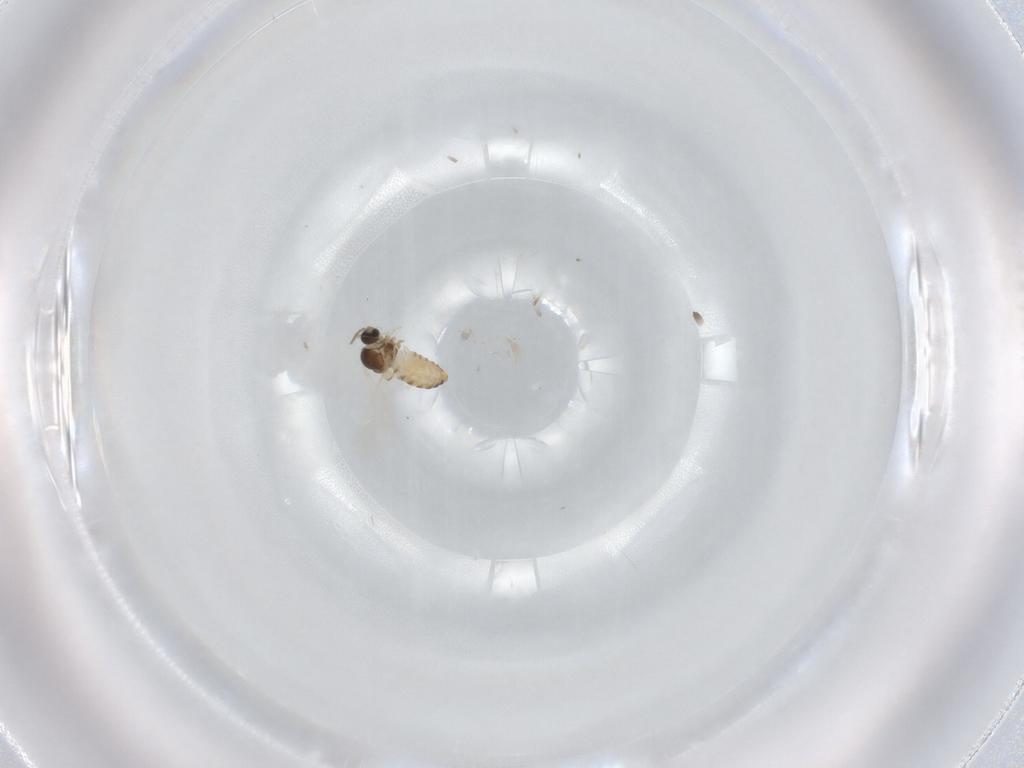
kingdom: Animalia
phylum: Arthropoda
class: Insecta
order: Diptera
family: Cecidomyiidae
